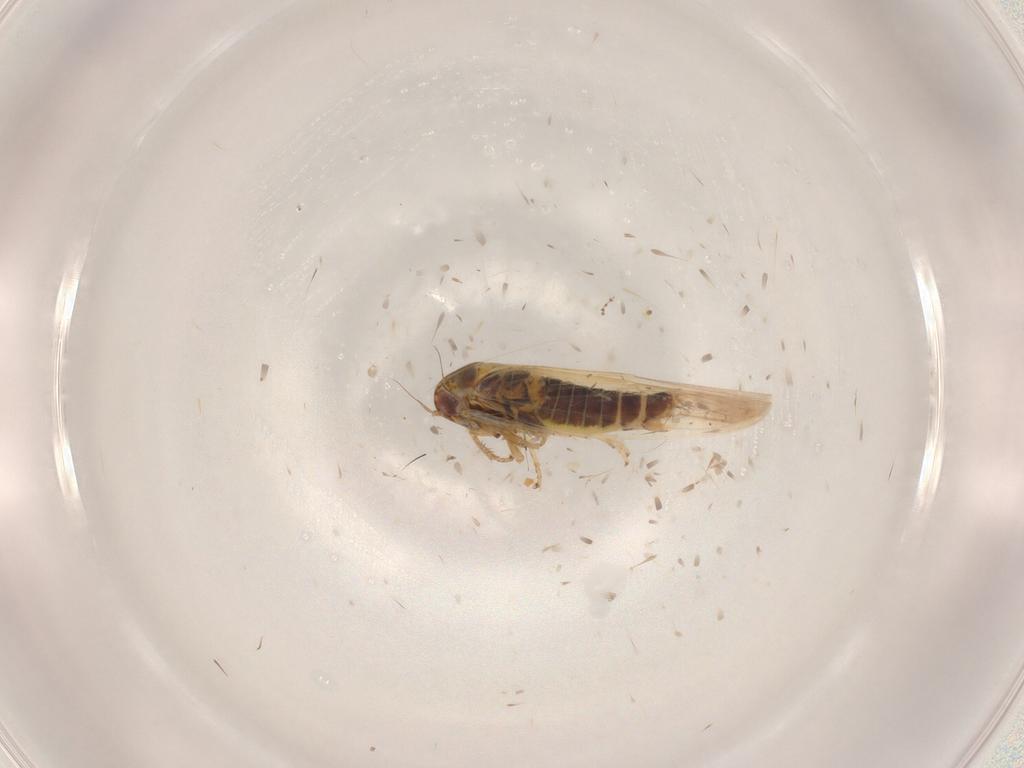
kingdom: Animalia
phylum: Arthropoda
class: Insecta
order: Hemiptera
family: Cicadellidae
